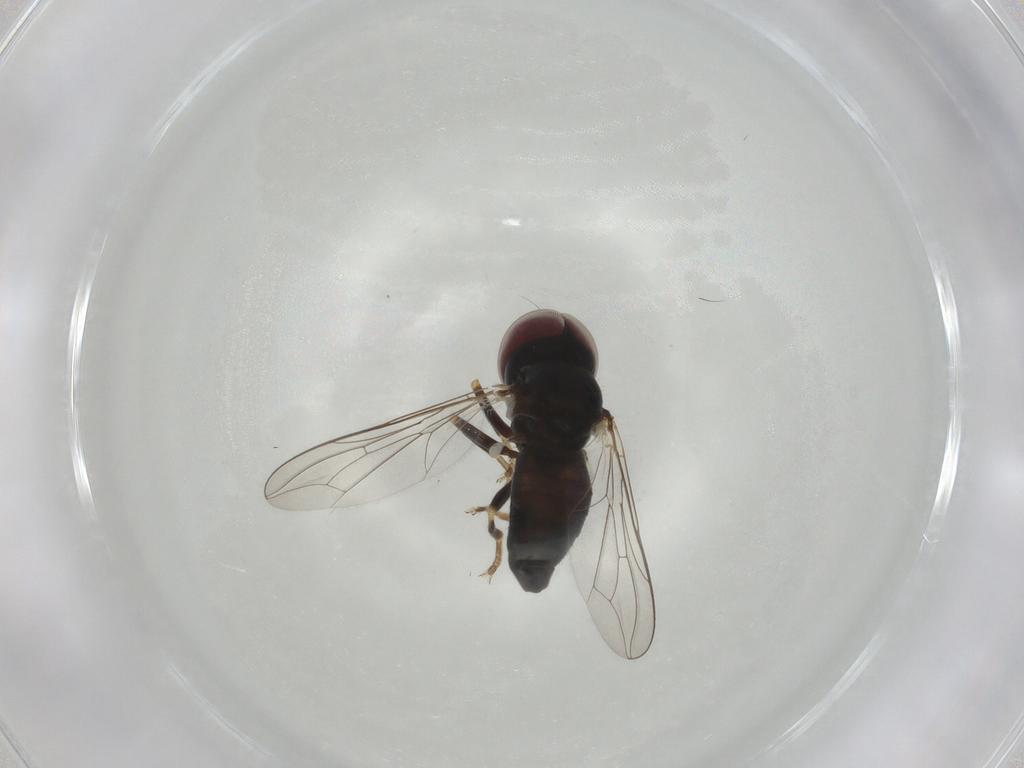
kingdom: Animalia
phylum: Arthropoda
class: Insecta
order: Diptera
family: Pipunculidae
